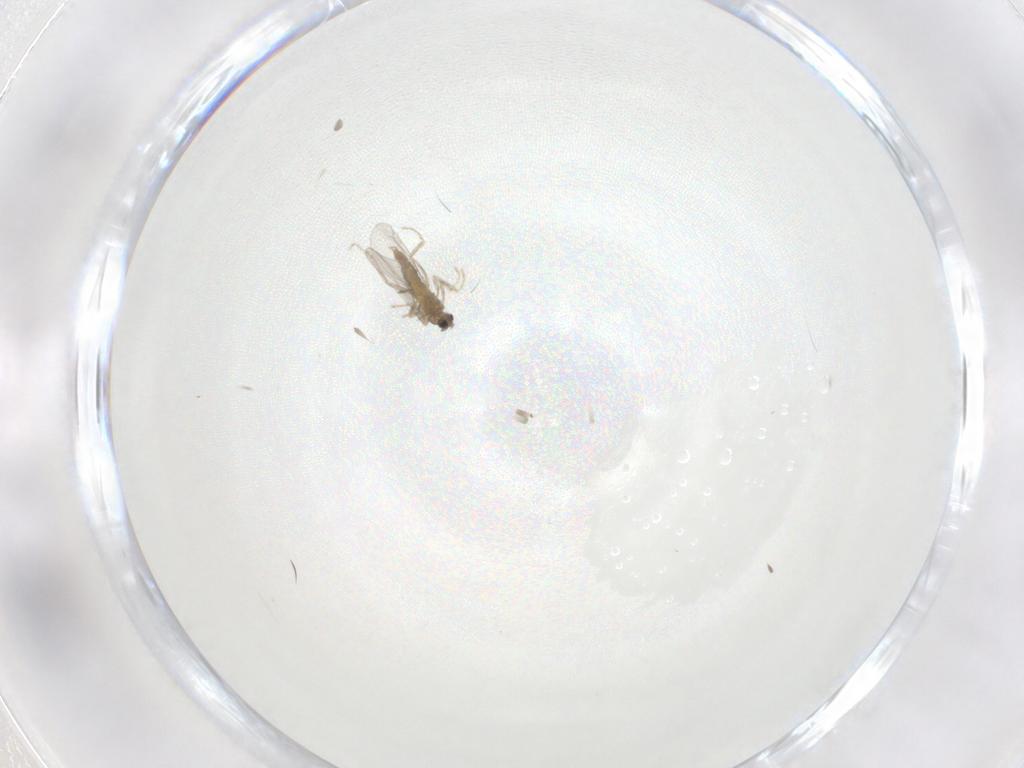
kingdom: Animalia
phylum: Arthropoda
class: Insecta
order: Diptera
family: Cecidomyiidae
